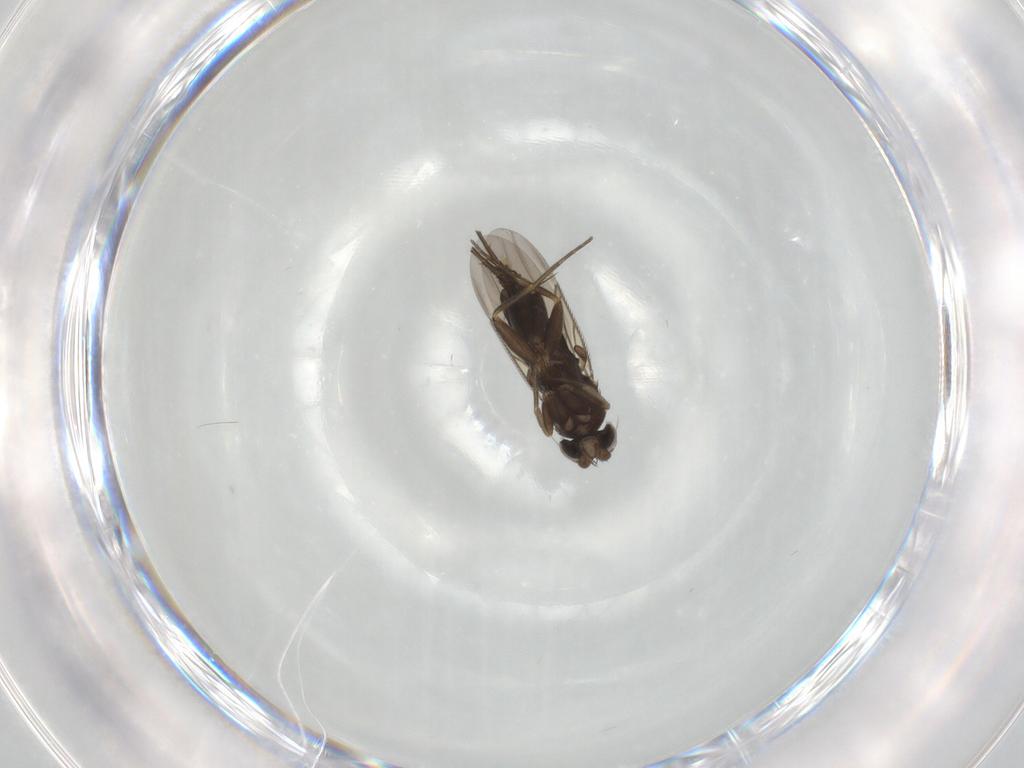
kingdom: Animalia
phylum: Arthropoda
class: Insecta
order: Diptera
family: Phoridae
